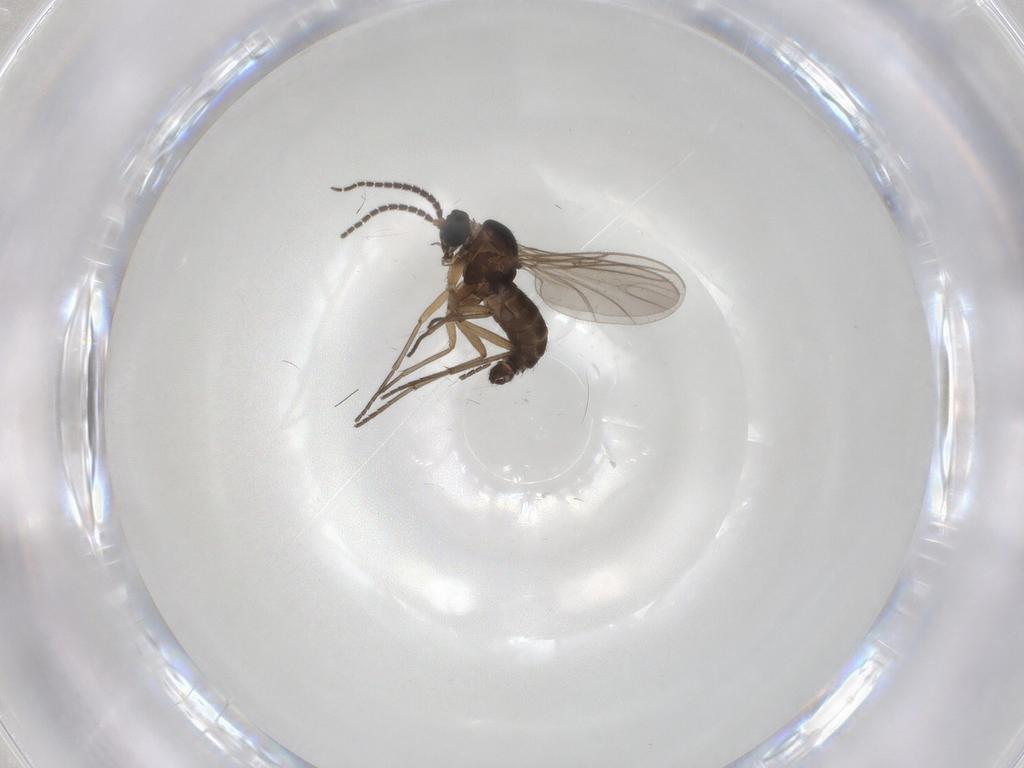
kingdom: Animalia
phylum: Arthropoda
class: Insecta
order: Diptera
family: Sciaridae
